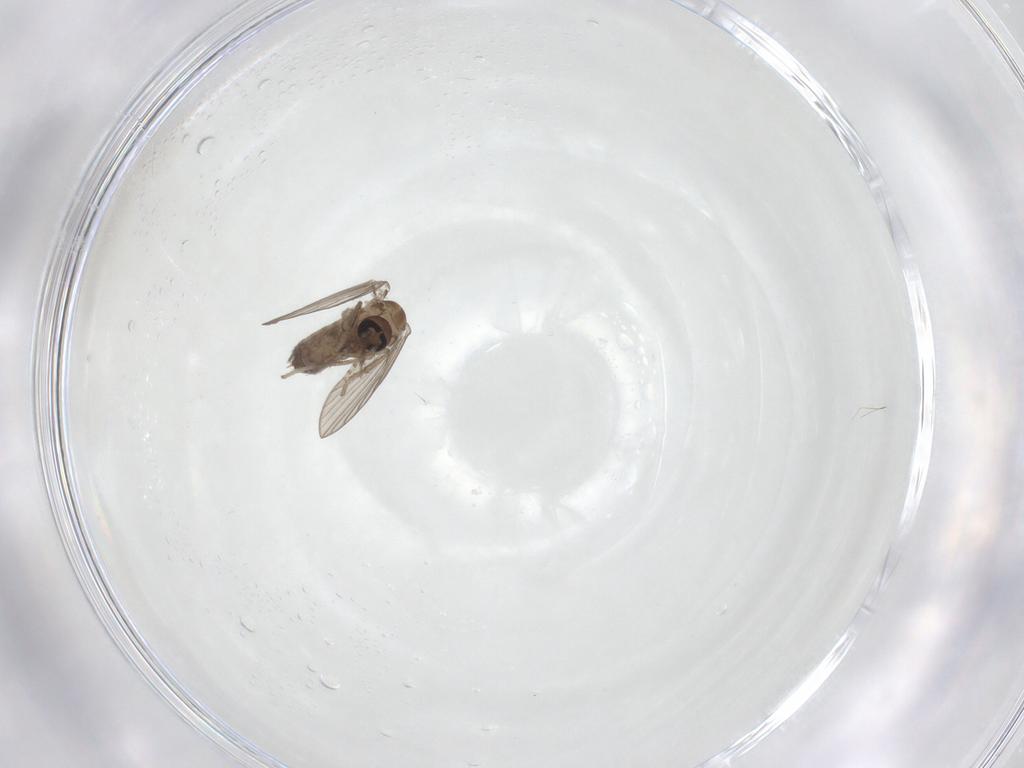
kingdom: Animalia
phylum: Arthropoda
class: Insecta
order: Diptera
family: Psychodidae
